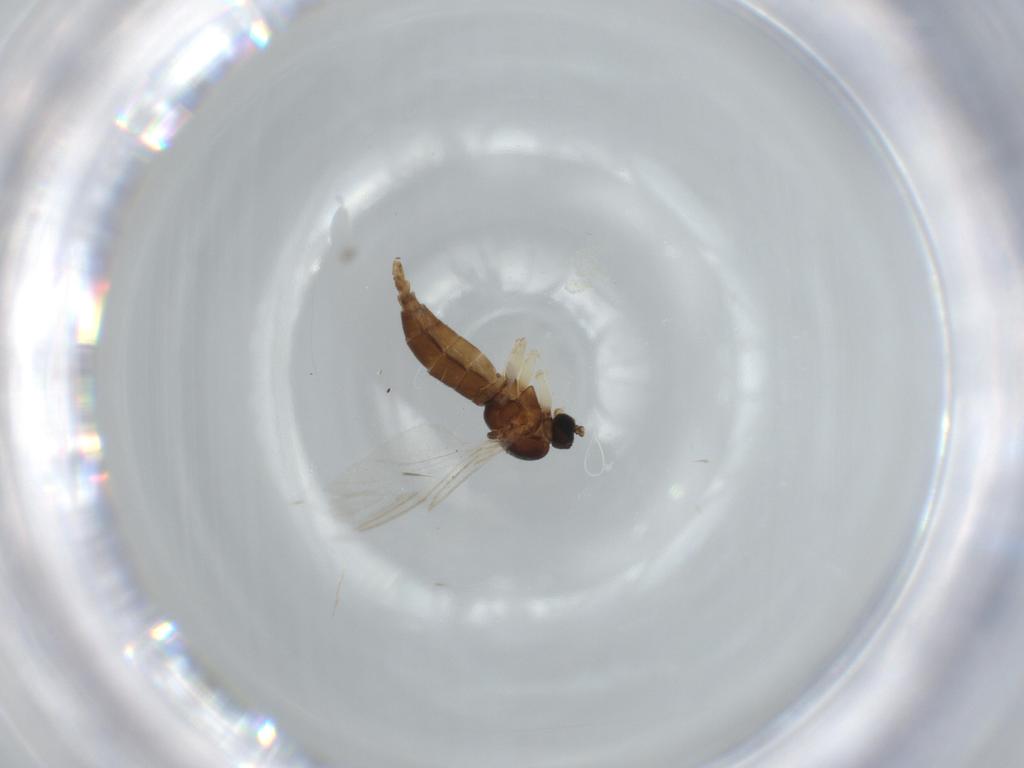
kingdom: Animalia
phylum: Arthropoda
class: Insecta
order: Diptera
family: Sciaridae
